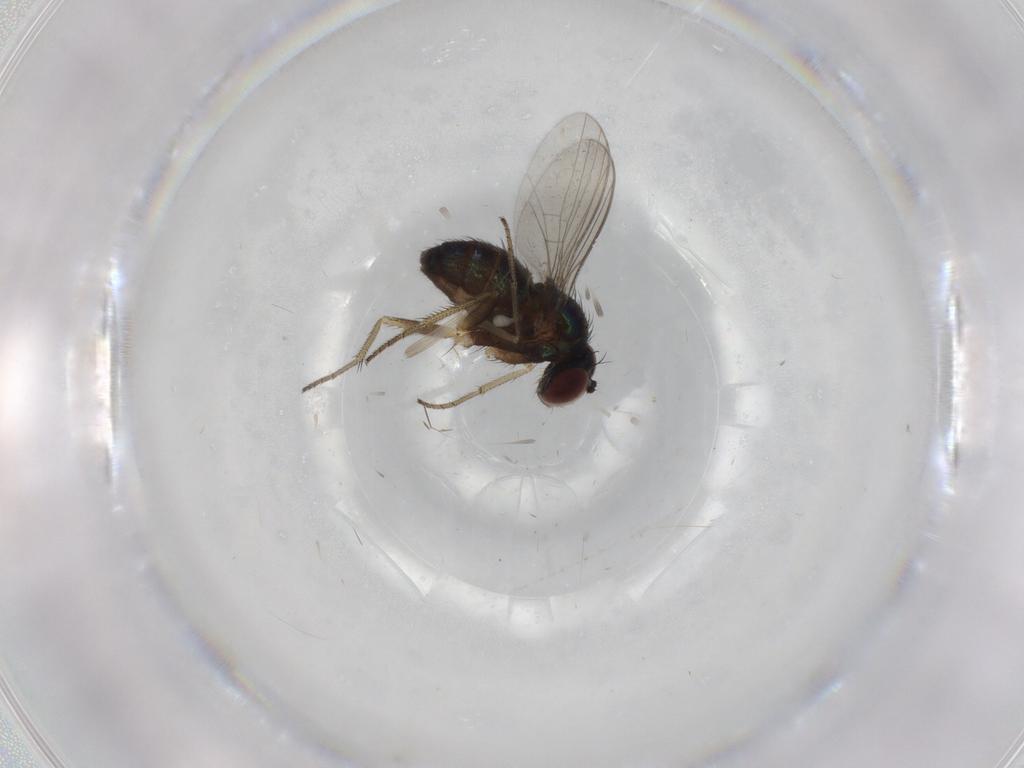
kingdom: Animalia
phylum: Arthropoda
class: Insecta
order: Diptera
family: Dolichopodidae
